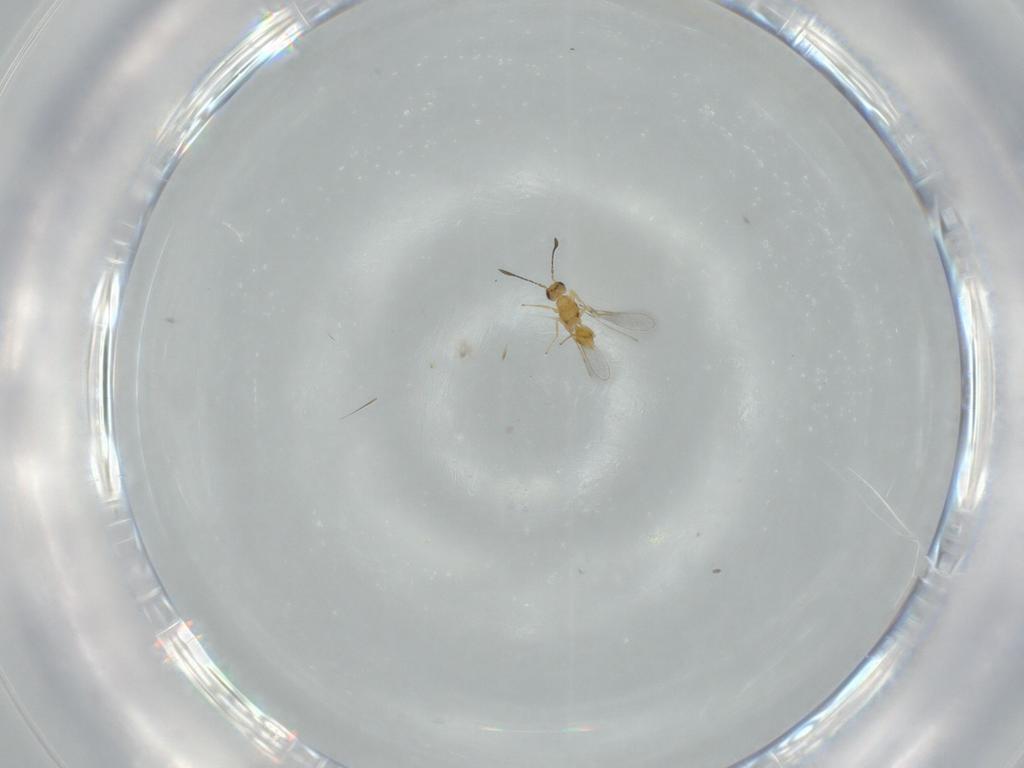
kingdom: Animalia
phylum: Arthropoda
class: Insecta
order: Hymenoptera
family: Mymaridae
